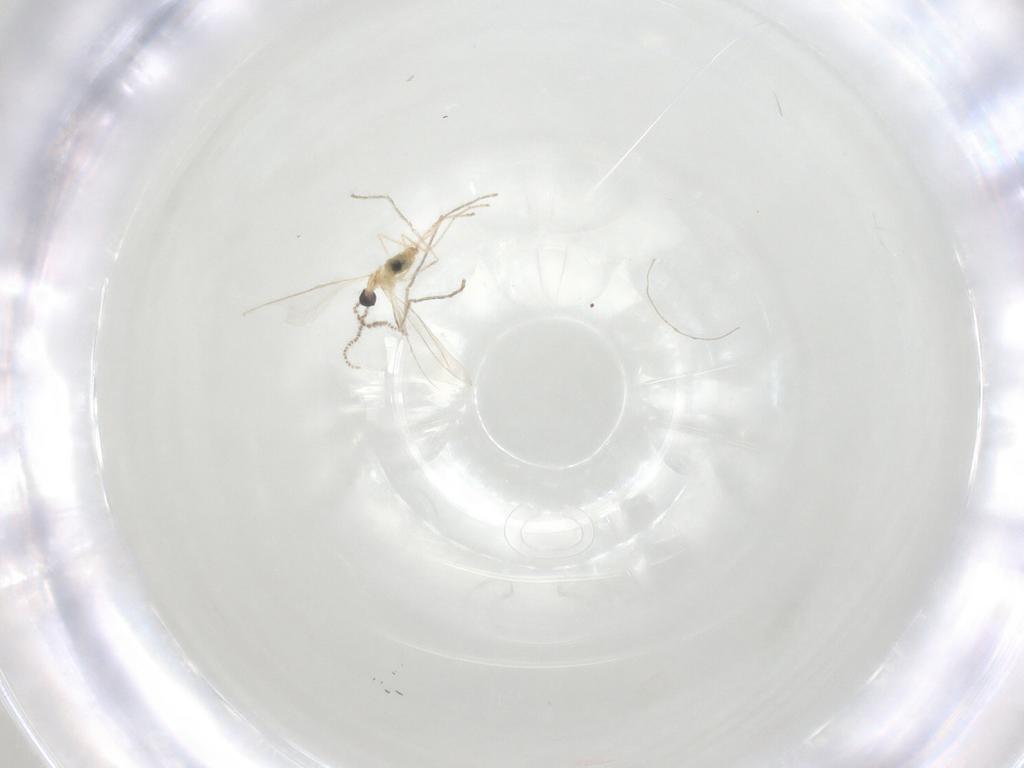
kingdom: Animalia
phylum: Arthropoda
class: Insecta
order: Diptera
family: Cecidomyiidae
